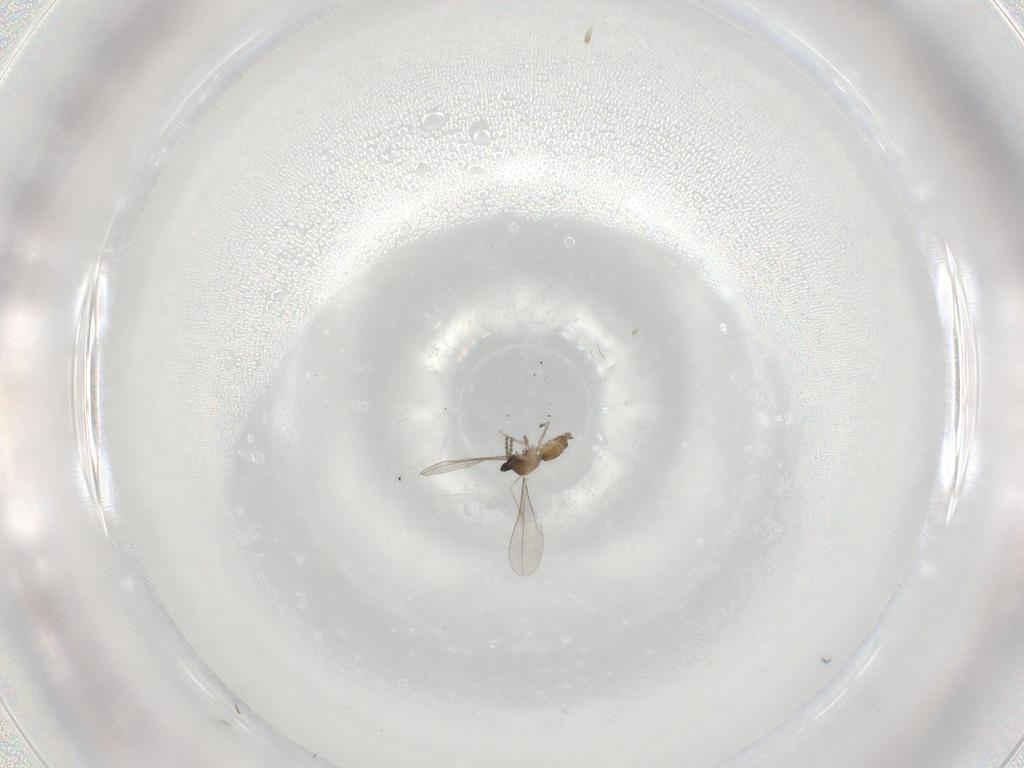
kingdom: Animalia
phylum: Arthropoda
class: Insecta
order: Diptera
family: Cecidomyiidae
